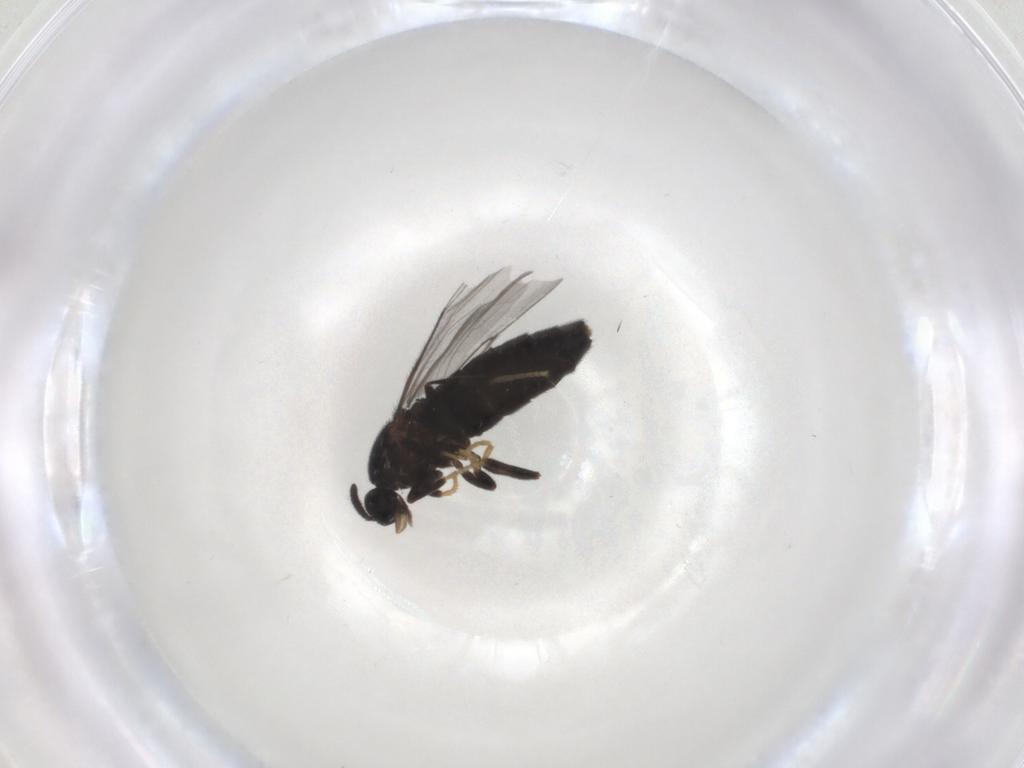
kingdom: Animalia
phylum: Arthropoda
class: Insecta
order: Diptera
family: Scatopsidae
